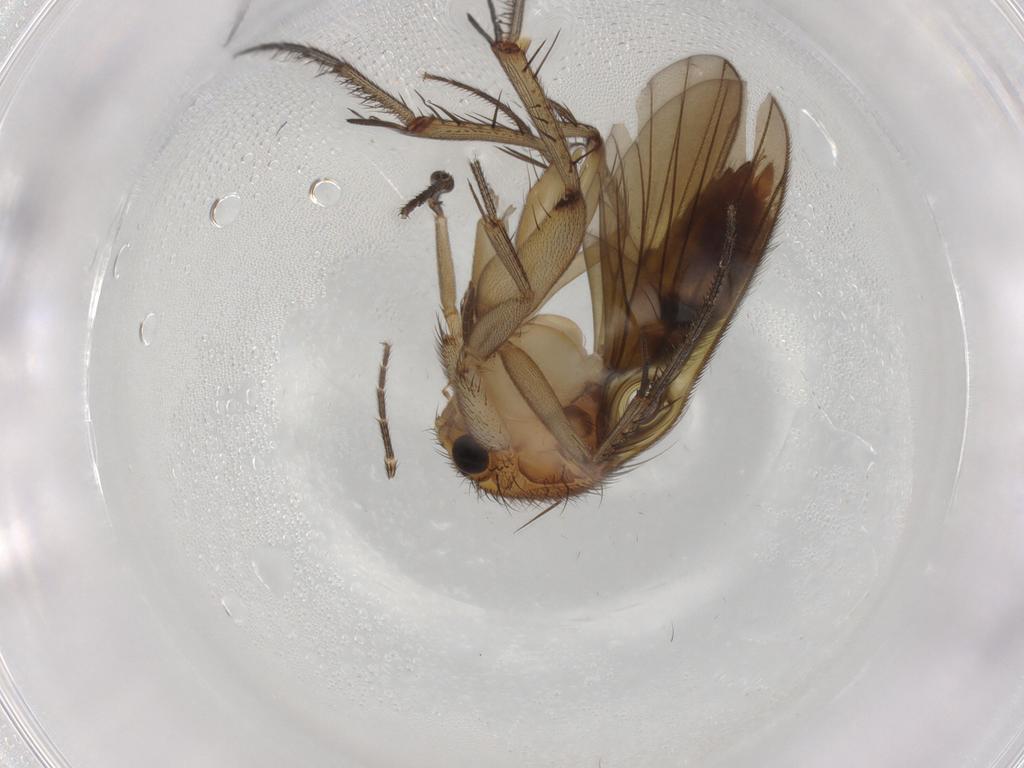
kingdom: Animalia
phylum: Arthropoda
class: Insecta
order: Diptera
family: Mycetophilidae
